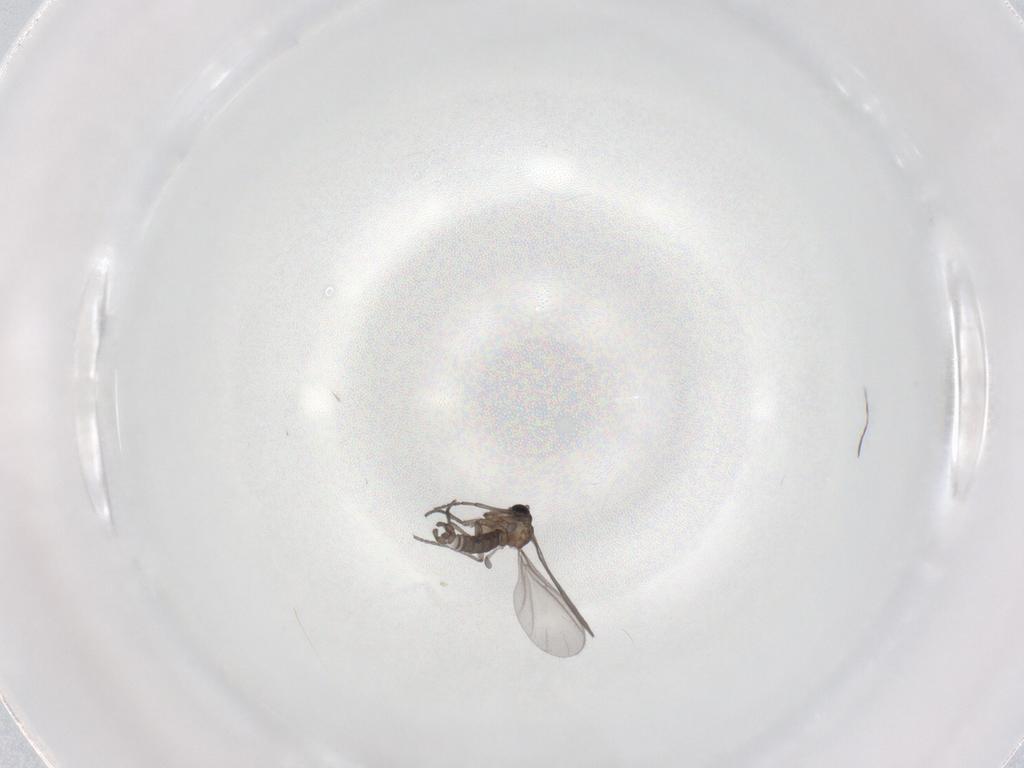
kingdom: Animalia
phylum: Arthropoda
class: Insecta
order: Diptera
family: Sciaridae
